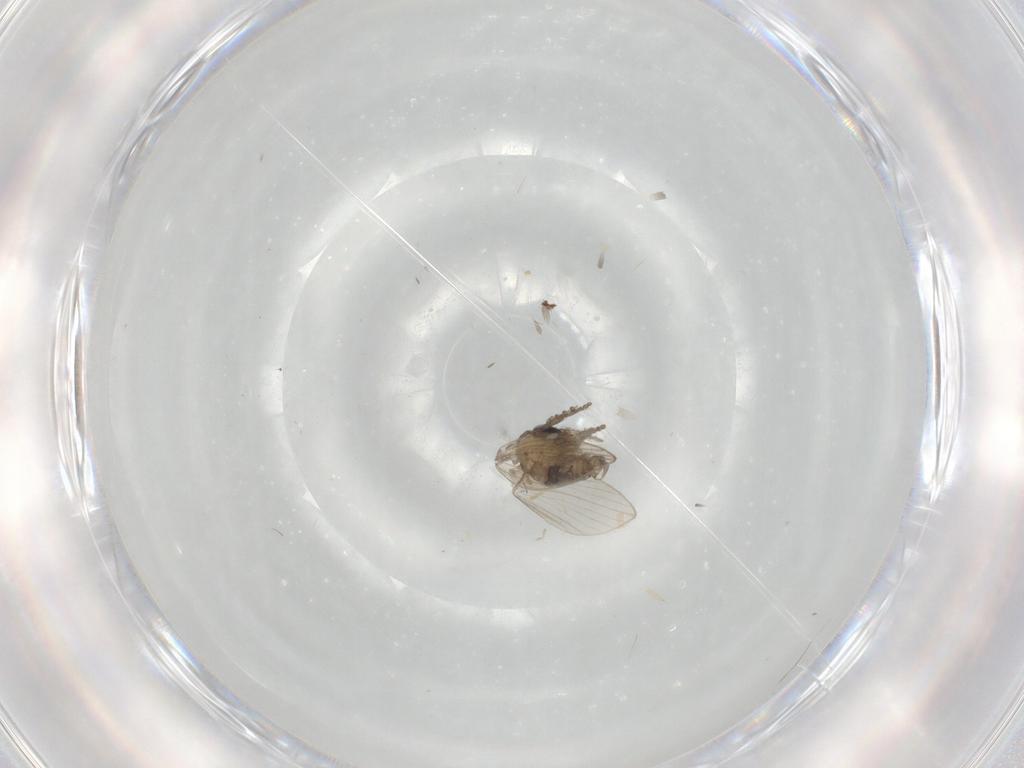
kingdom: Animalia
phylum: Arthropoda
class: Insecta
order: Diptera
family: Psychodidae
